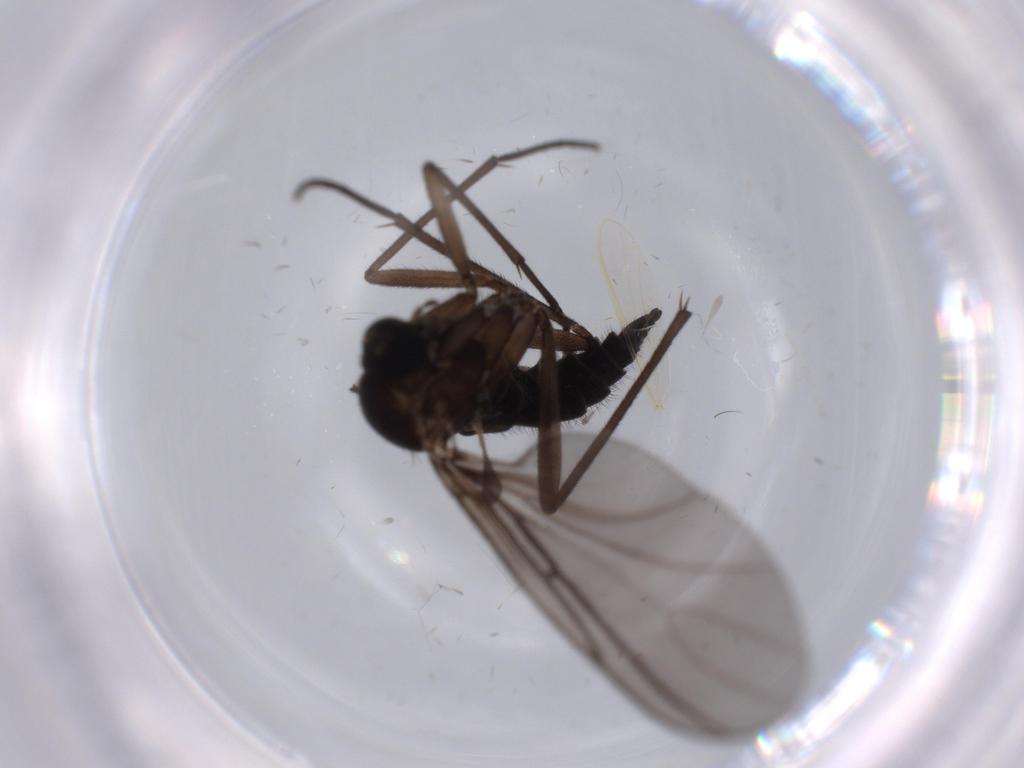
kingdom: Animalia
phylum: Arthropoda
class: Insecta
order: Diptera
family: Sciaridae
